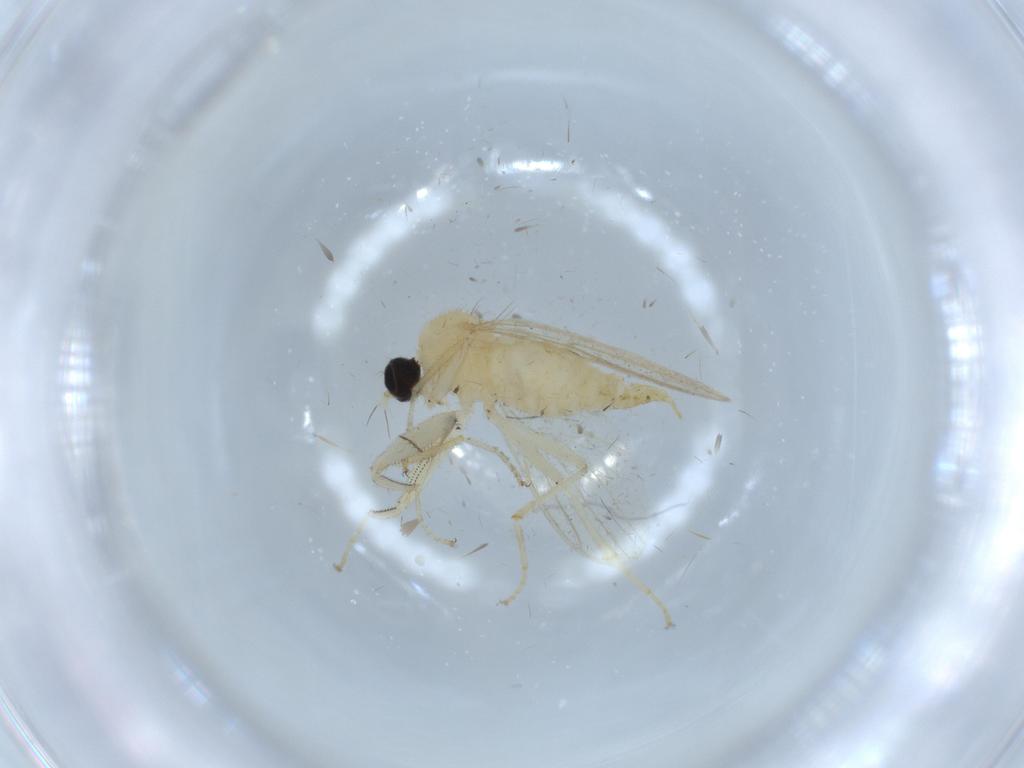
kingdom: Animalia
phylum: Arthropoda
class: Insecta
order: Diptera
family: Hybotidae
